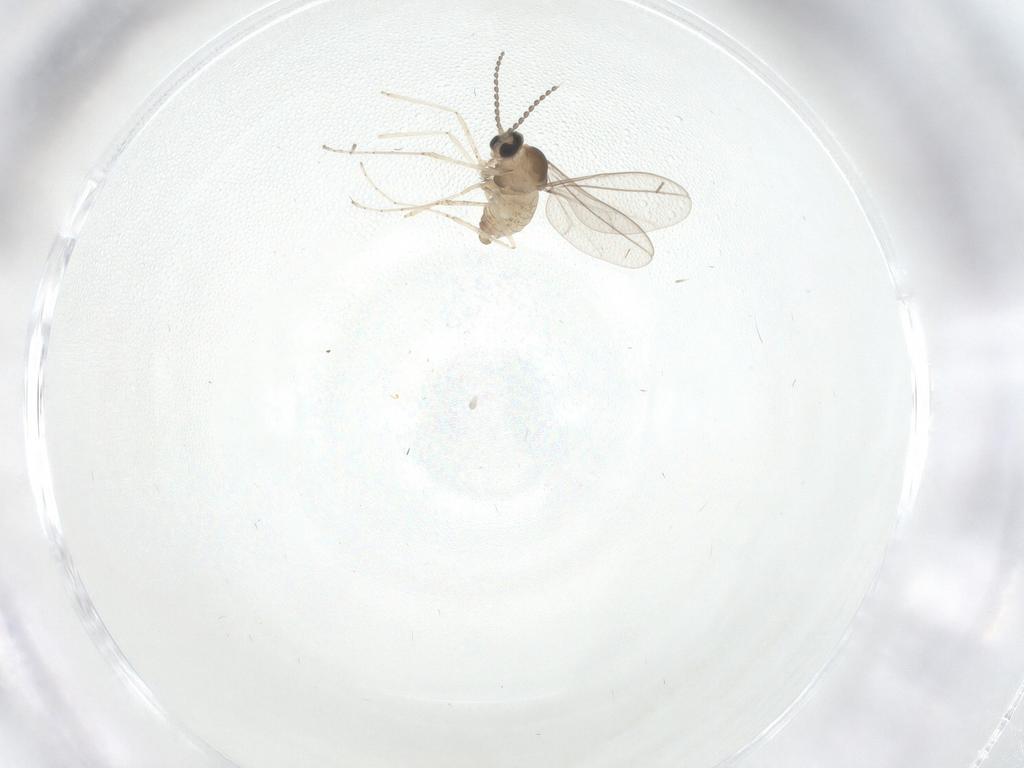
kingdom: Animalia
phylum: Arthropoda
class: Insecta
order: Diptera
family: Cecidomyiidae
